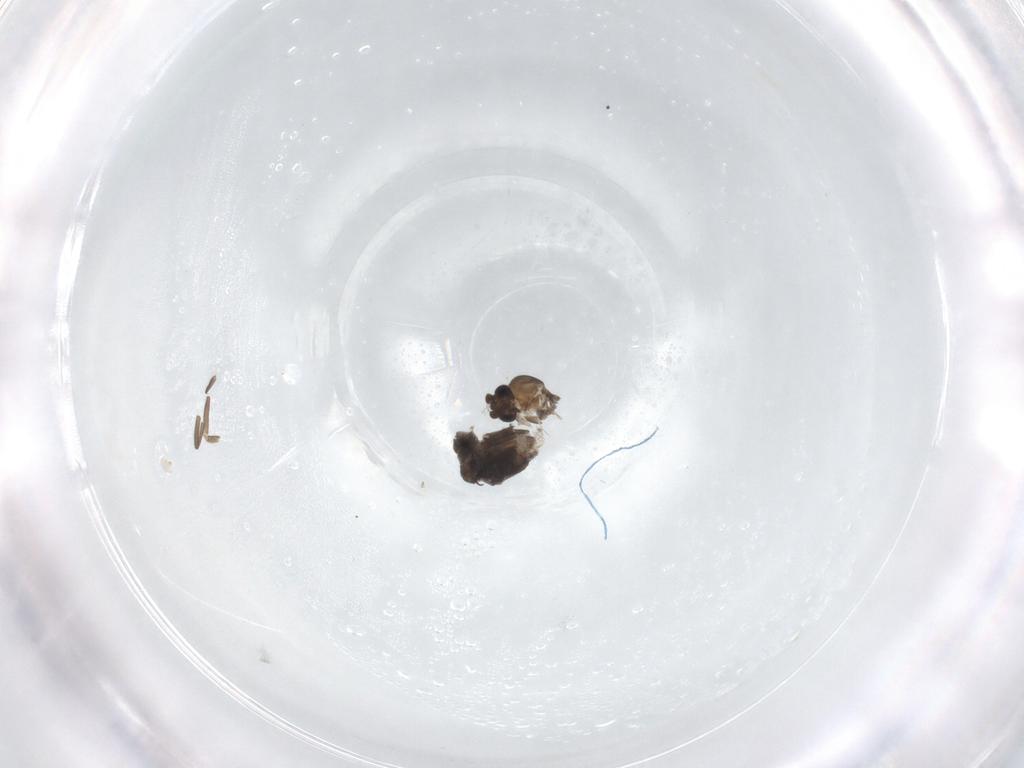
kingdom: Animalia
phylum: Arthropoda
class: Insecta
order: Diptera
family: Phoridae
